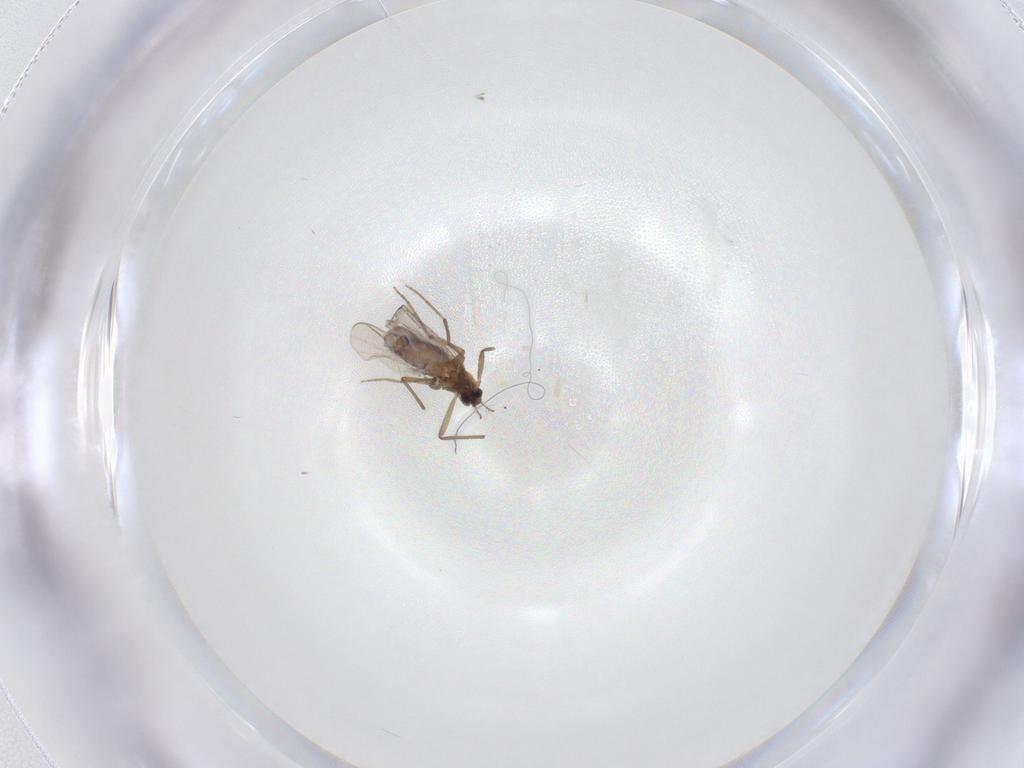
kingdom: Animalia
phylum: Arthropoda
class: Insecta
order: Diptera
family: Chironomidae
